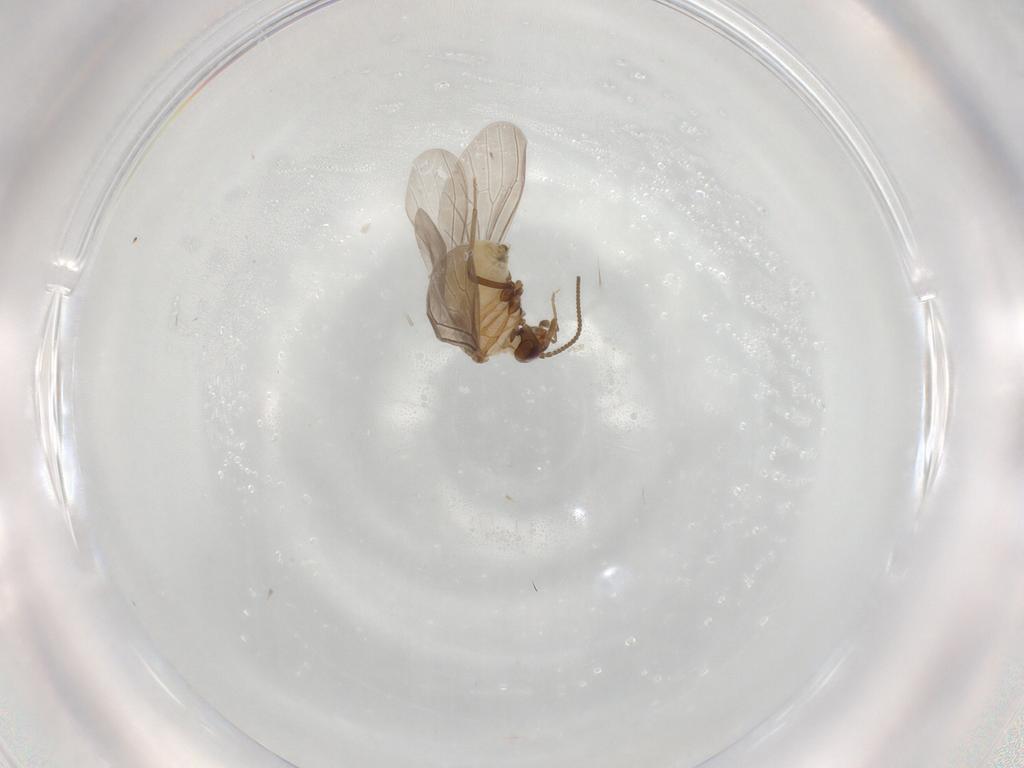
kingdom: Animalia
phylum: Arthropoda
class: Insecta
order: Neuroptera
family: Coniopterygidae
